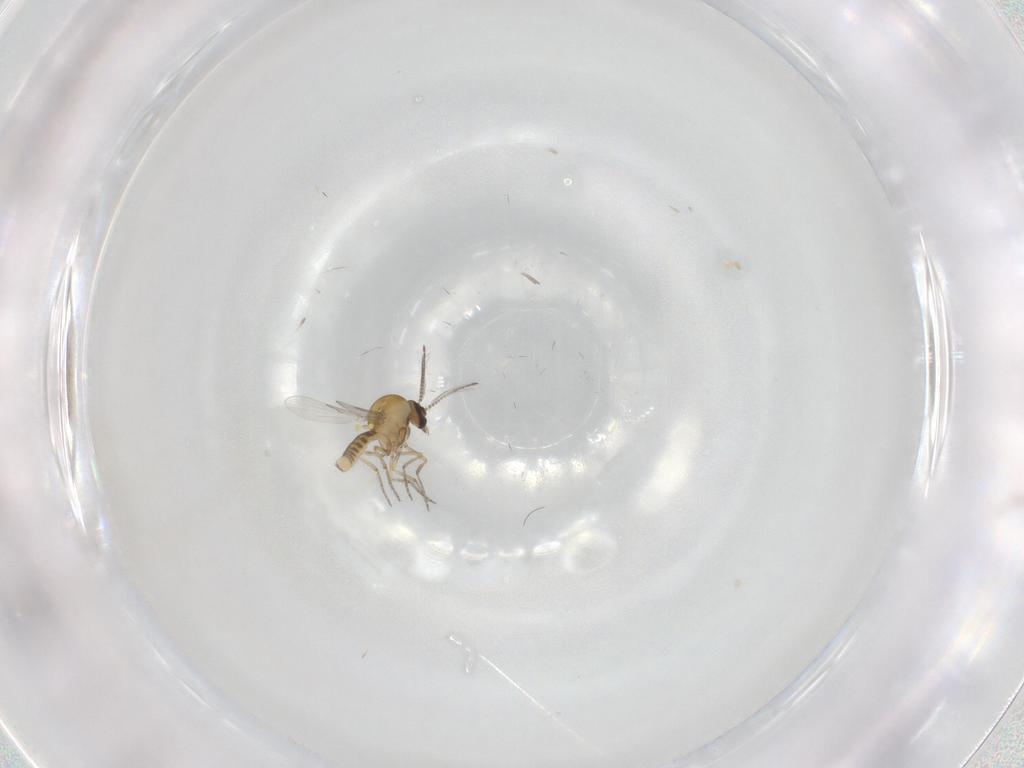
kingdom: Animalia
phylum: Arthropoda
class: Insecta
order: Diptera
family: Ceratopogonidae
